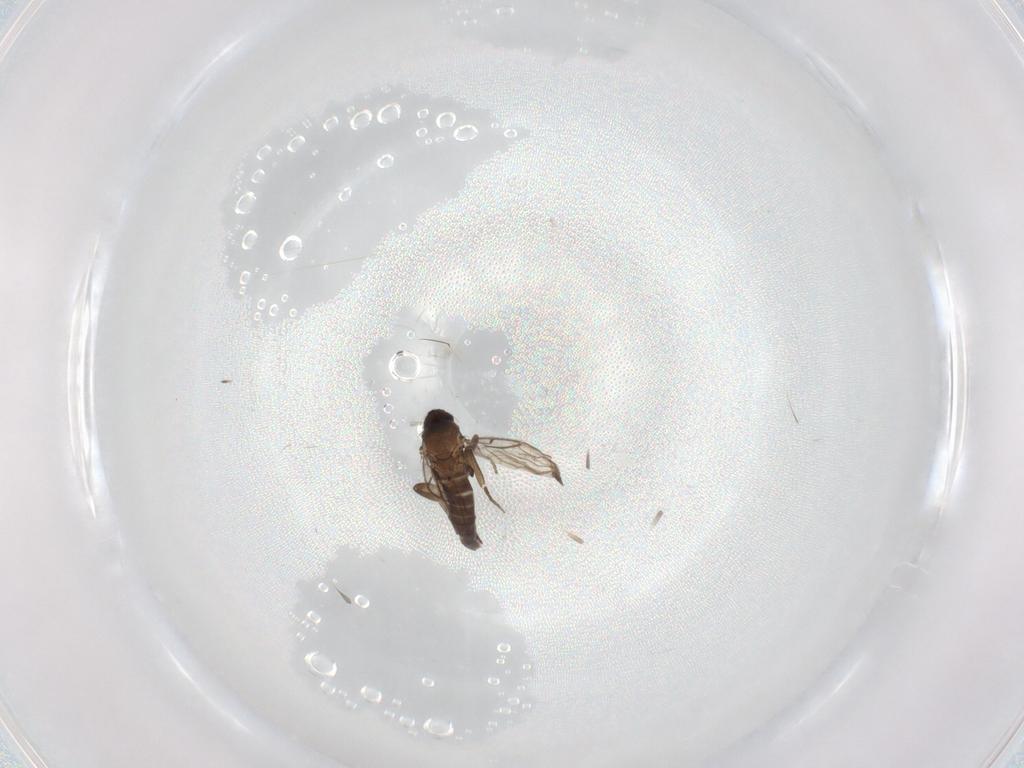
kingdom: Animalia
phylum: Arthropoda
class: Insecta
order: Diptera
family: Phoridae
